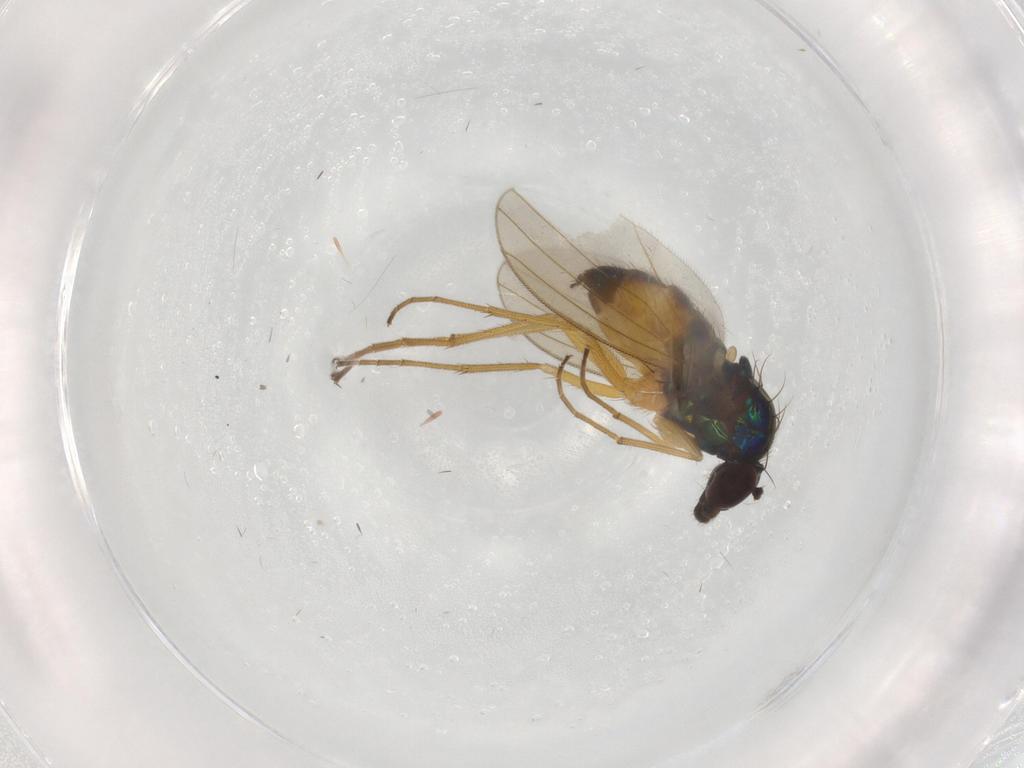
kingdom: Animalia
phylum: Arthropoda
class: Insecta
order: Diptera
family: Dolichopodidae
